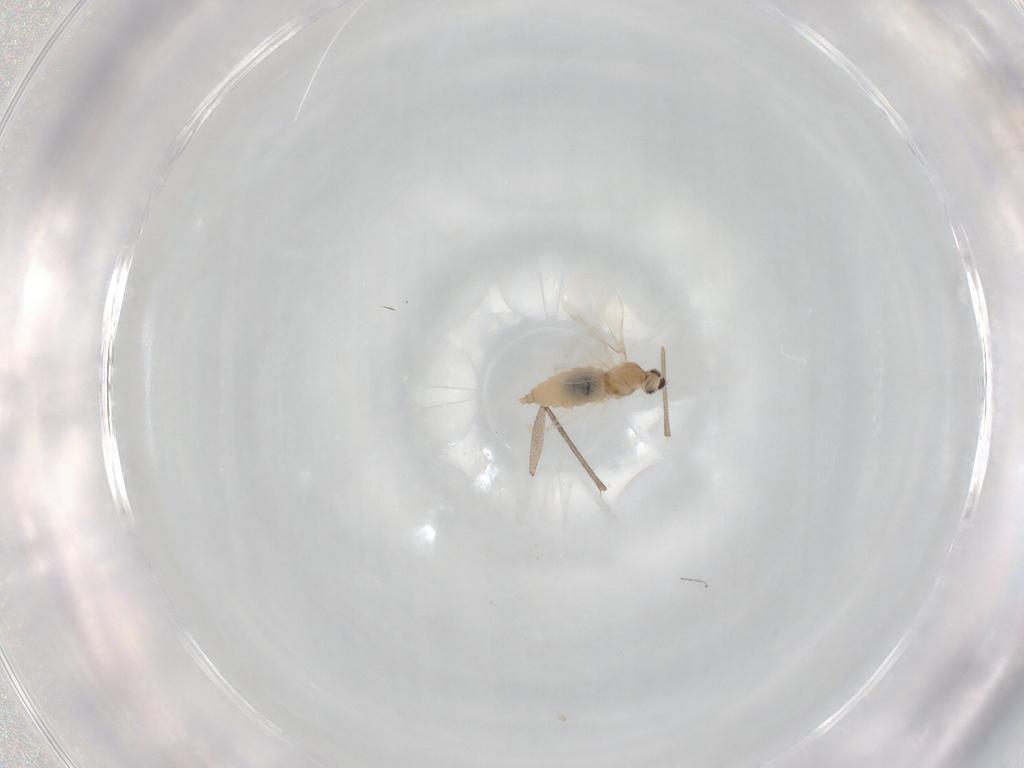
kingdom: Animalia
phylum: Arthropoda
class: Insecta
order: Diptera
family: Cecidomyiidae
